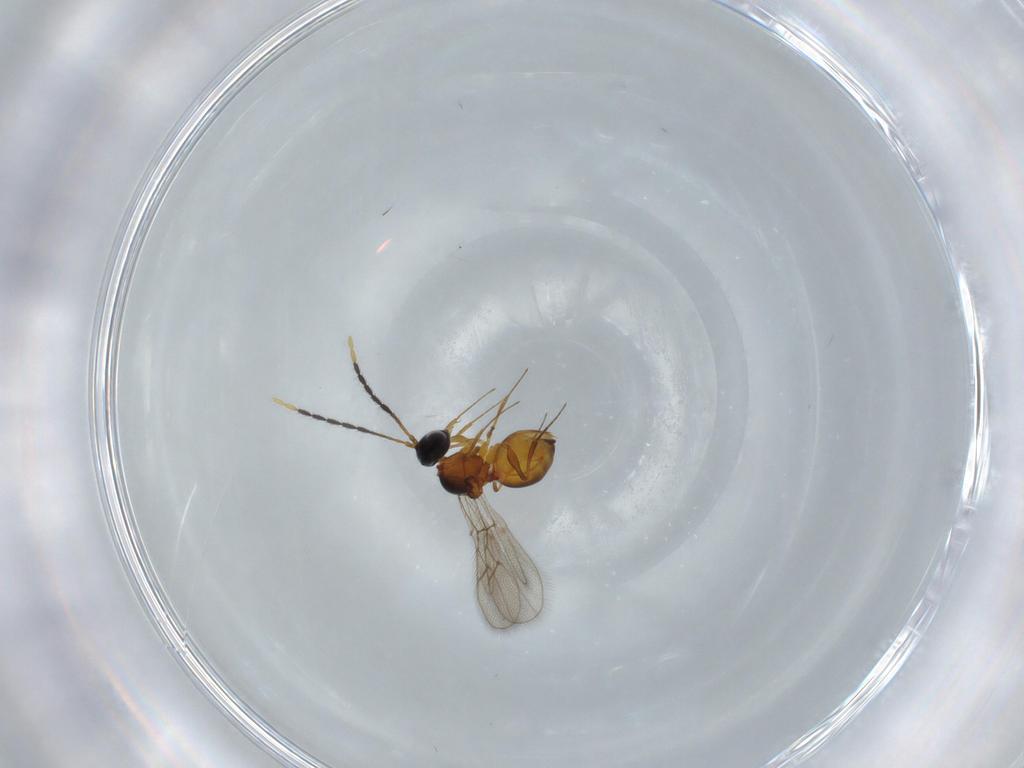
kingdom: Animalia
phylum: Arthropoda
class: Insecta
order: Hymenoptera
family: Figitidae
